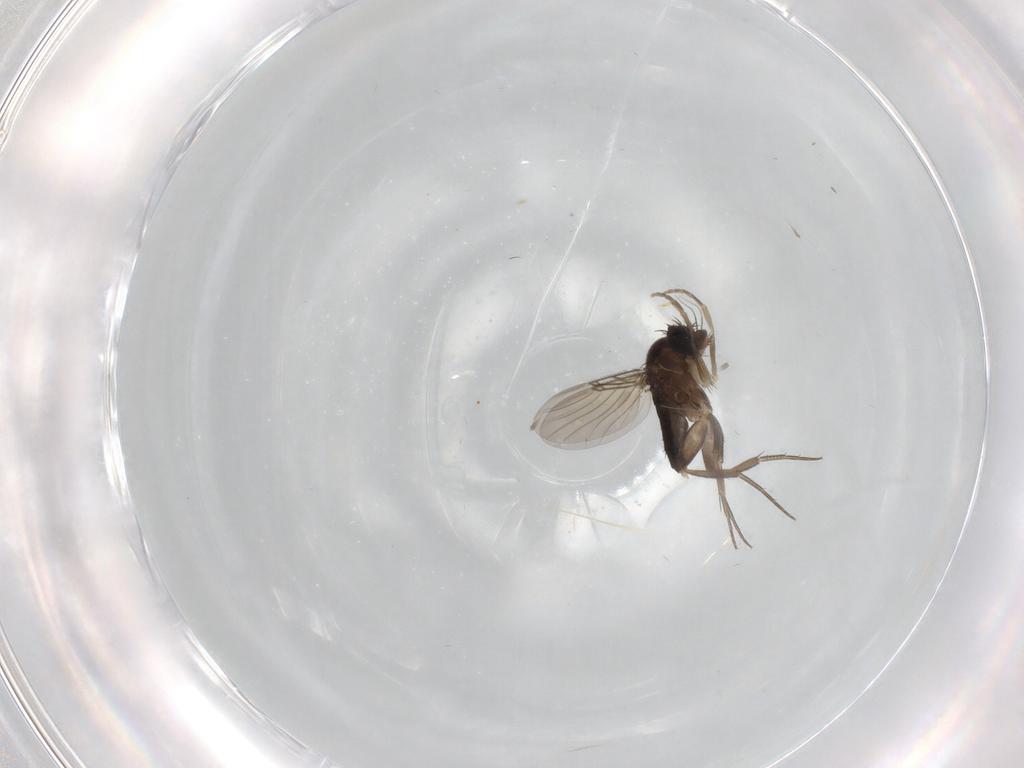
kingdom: Animalia
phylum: Arthropoda
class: Insecta
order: Diptera
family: Phoridae
